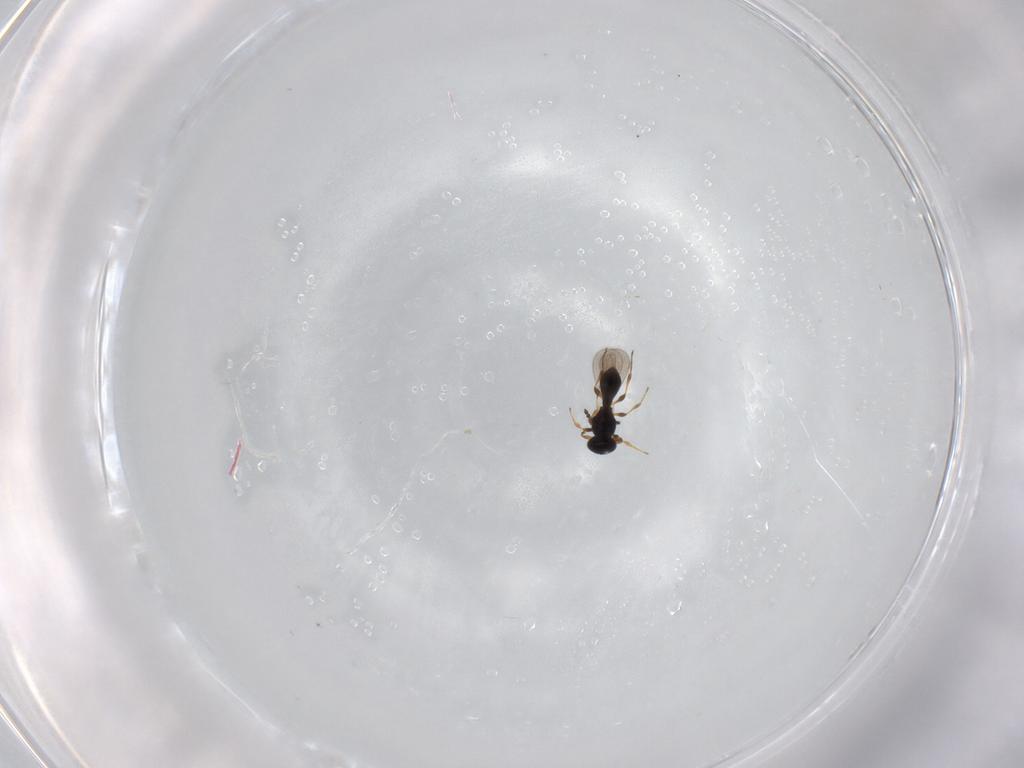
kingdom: Animalia
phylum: Arthropoda
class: Insecta
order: Hymenoptera
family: Platygastridae
